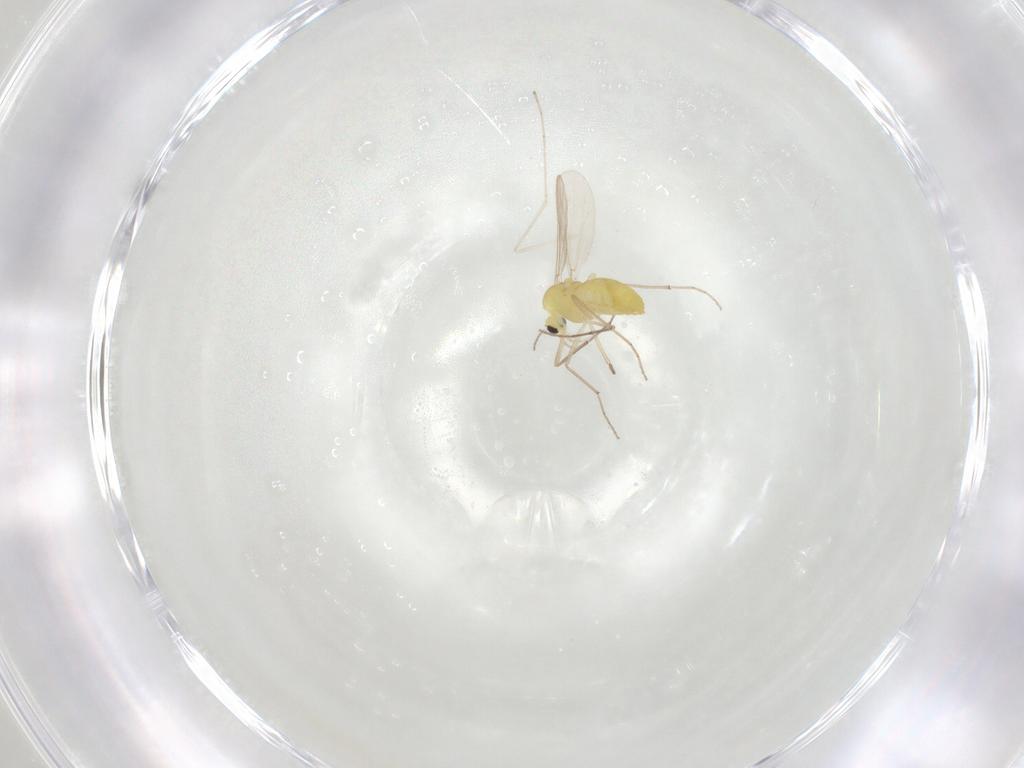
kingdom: Animalia
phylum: Arthropoda
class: Insecta
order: Diptera
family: Chironomidae
